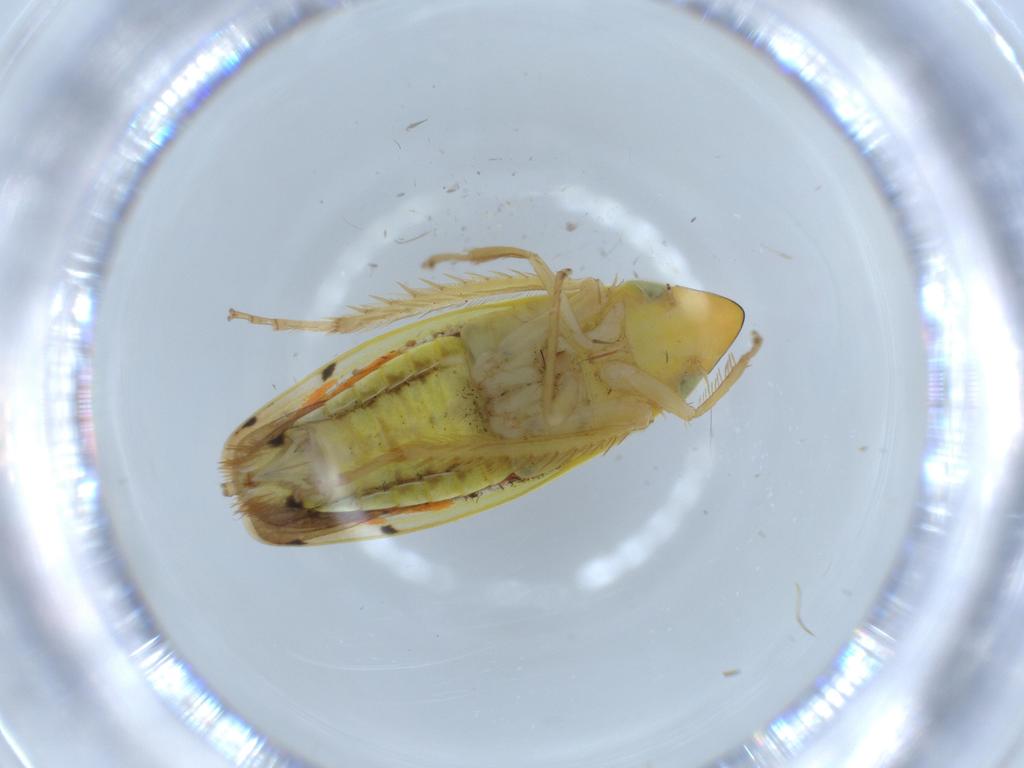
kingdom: Animalia
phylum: Arthropoda
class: Insecta
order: Hemiptera
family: Cicadellidae
